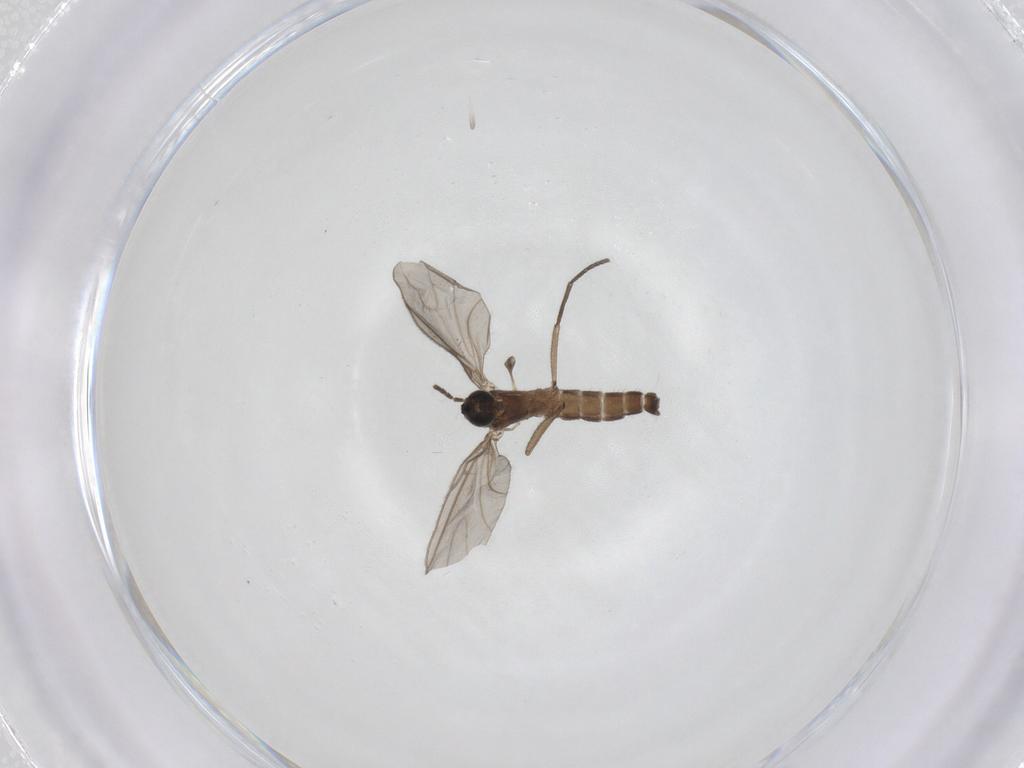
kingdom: Animalia
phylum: Arthropoda
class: Insecta
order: Diptera
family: Sciaridae
